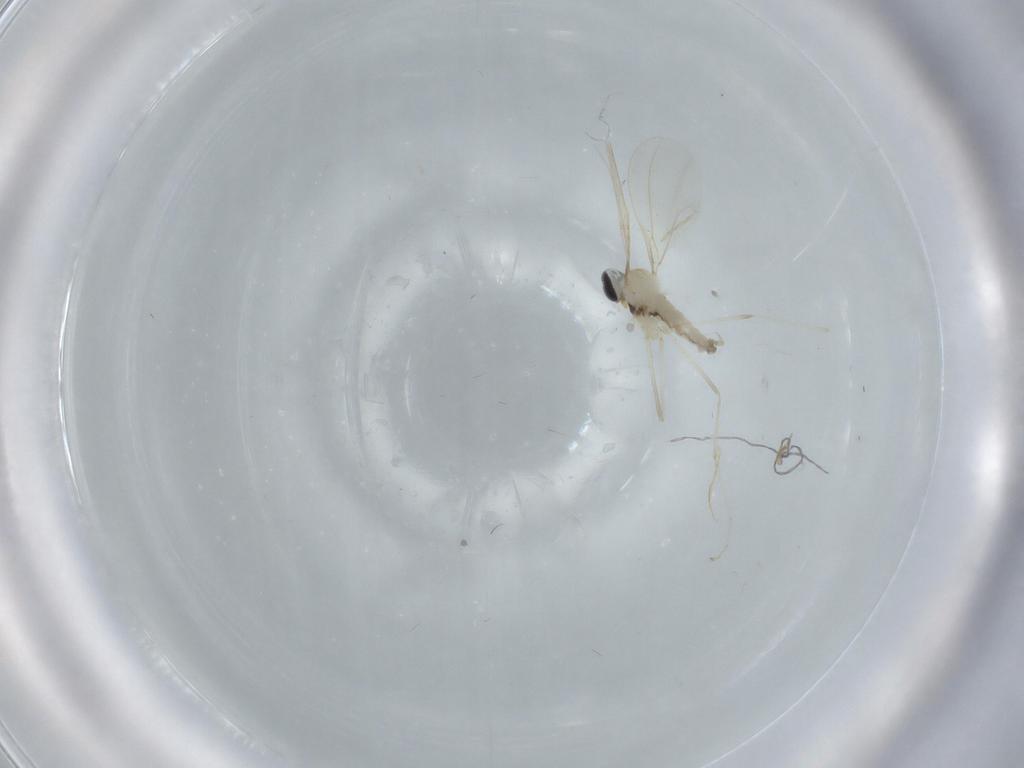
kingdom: Animalia
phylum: Arthropoda
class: Insecta
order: Diptera
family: Cecidomyiidae
